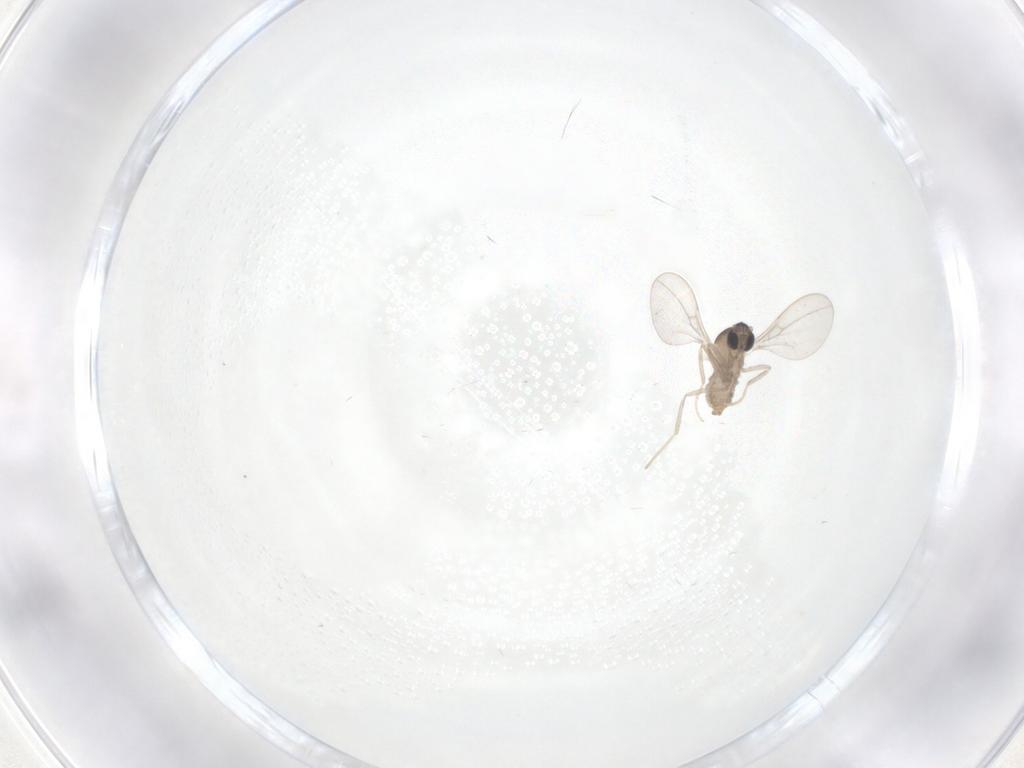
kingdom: Animalia
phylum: Arthropoda
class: Insecta
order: Diptera
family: Cecidomyiidae
